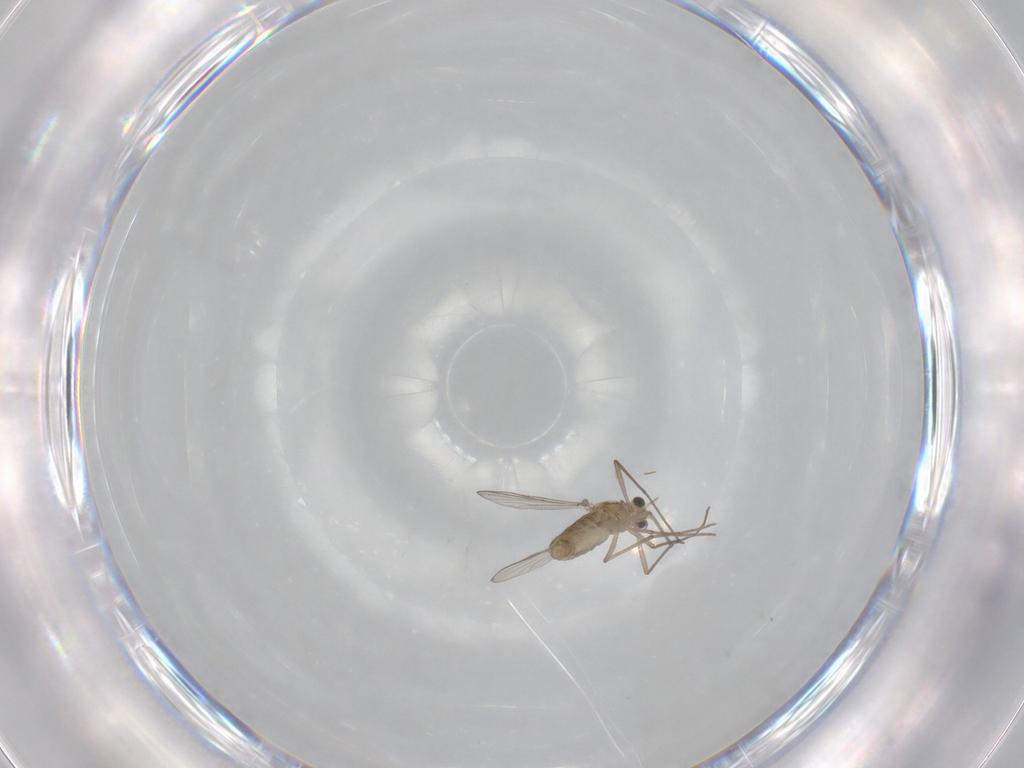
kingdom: Animalia
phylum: Arthropoda
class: Insecta
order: Diptera
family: Chironomidae
